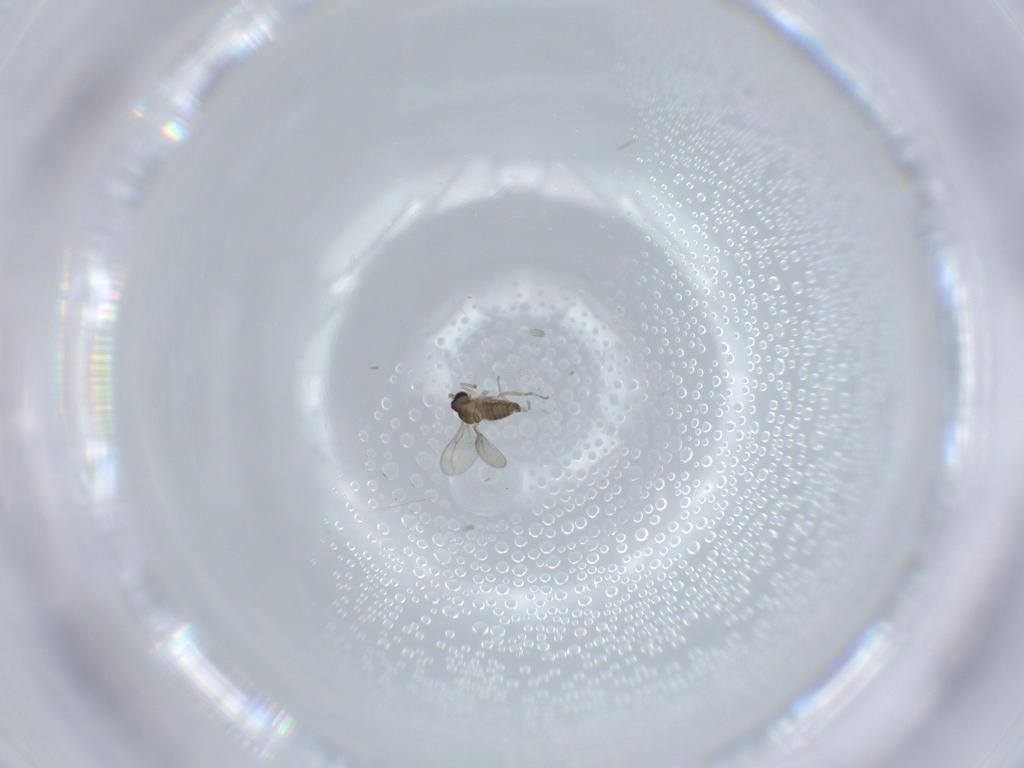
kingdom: Animalia
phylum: Arthropoda
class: Insecta
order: Diptera
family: Cecidomyiidae
